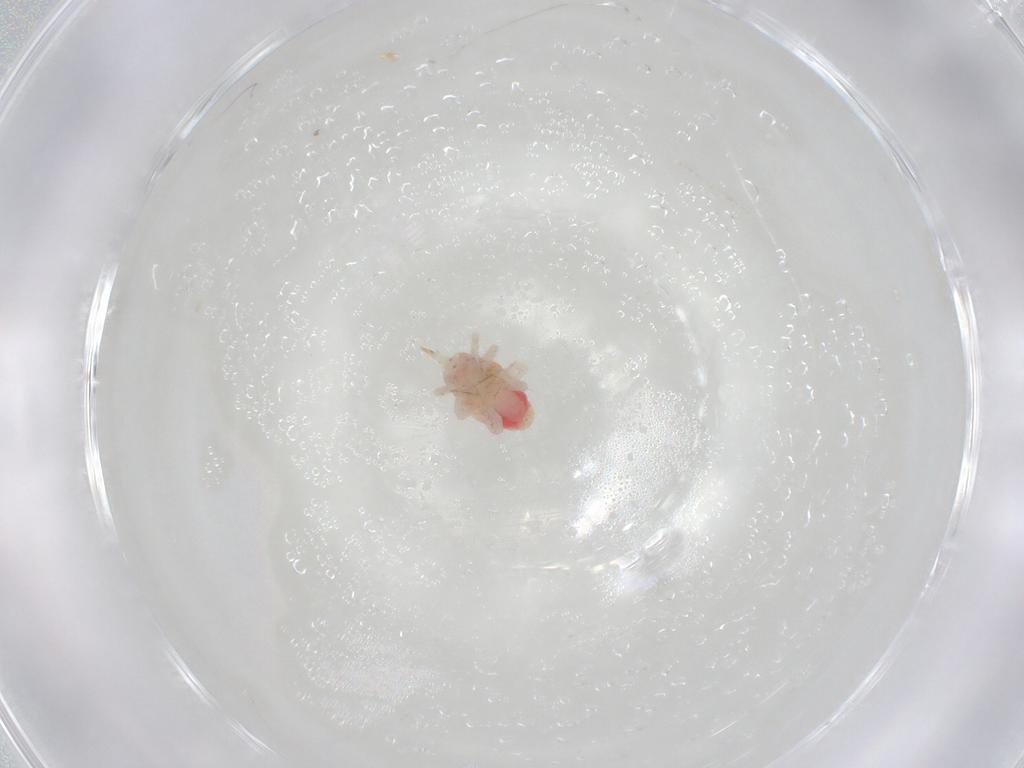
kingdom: Animalia
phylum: Arthropoda
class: Arachnida
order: Trombidiformes
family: Bdellidae
